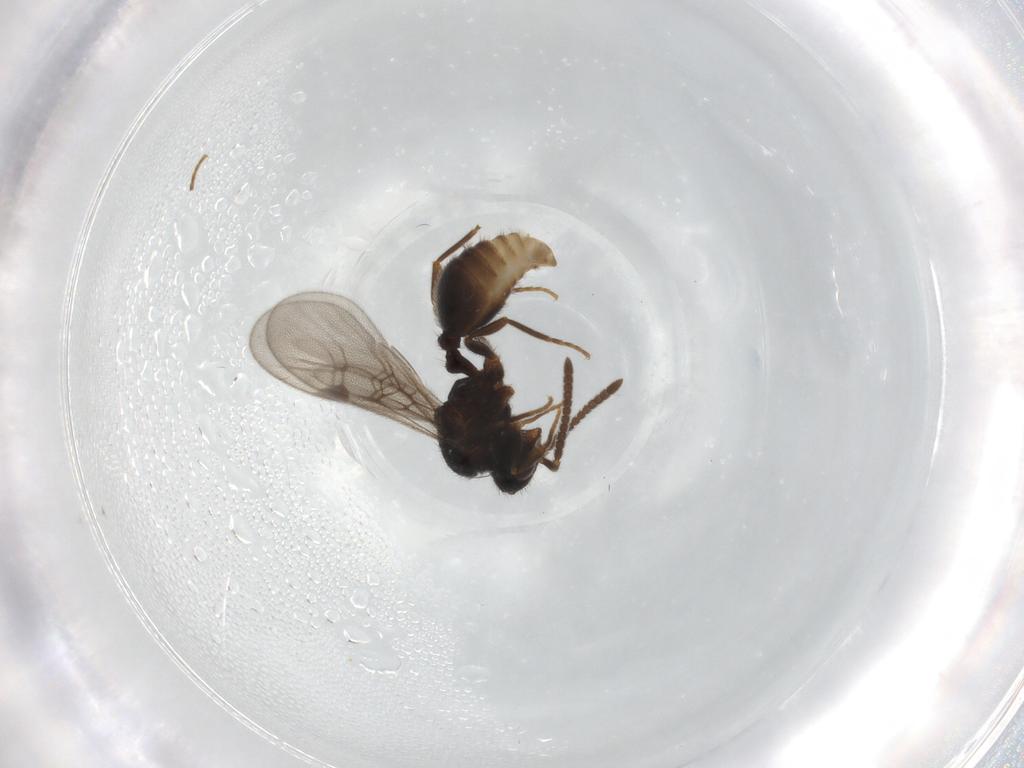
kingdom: Animalia
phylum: Arthropoda
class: Insecta
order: Hymenoptera
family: Formicidae
